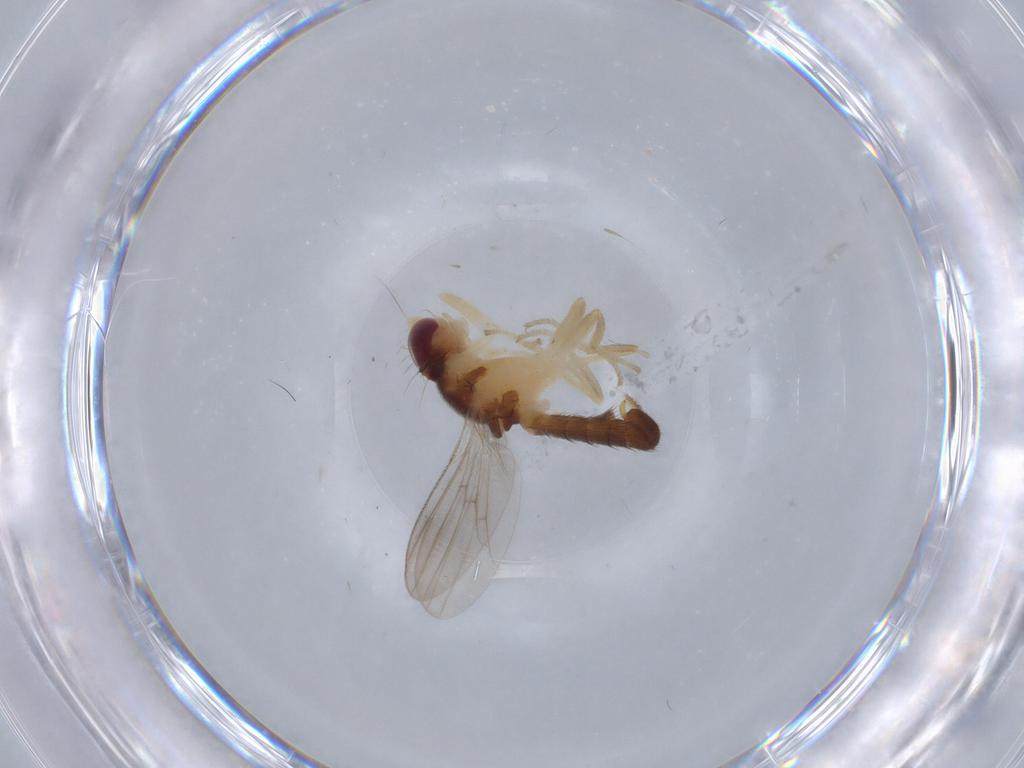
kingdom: Animalia
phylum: Arthropoda
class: Insecta
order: Diptera
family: Clusiidae
